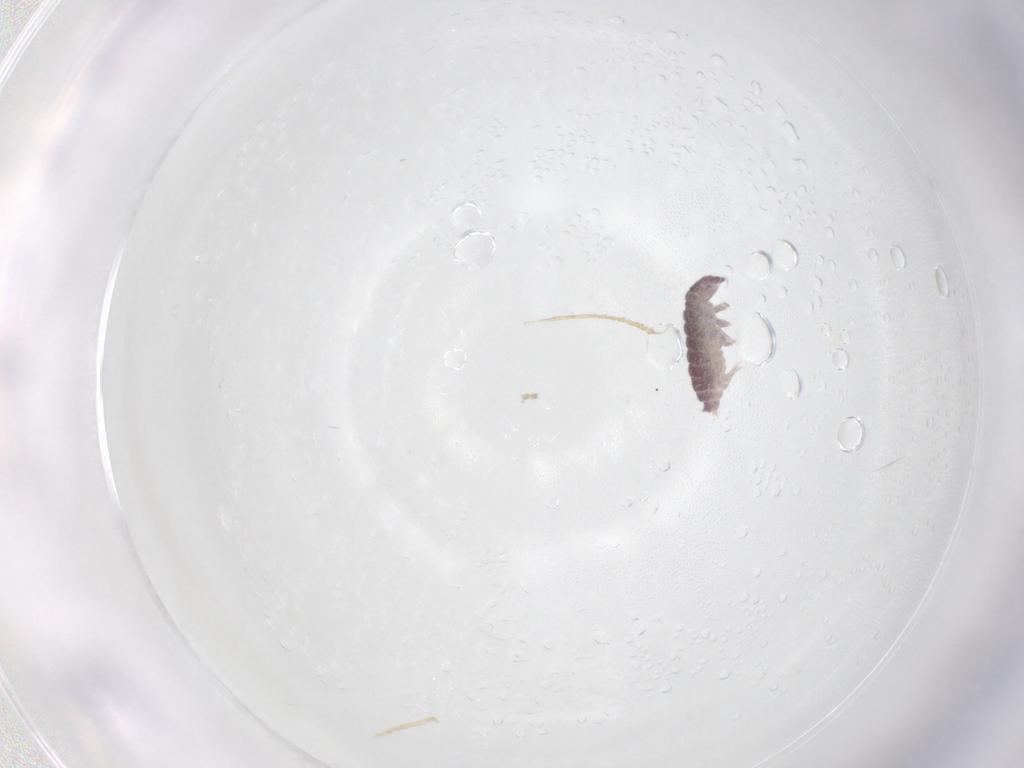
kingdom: Animalia
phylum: Arthropoda
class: Collembola
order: Poduromorpha
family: Hypogastruridae
